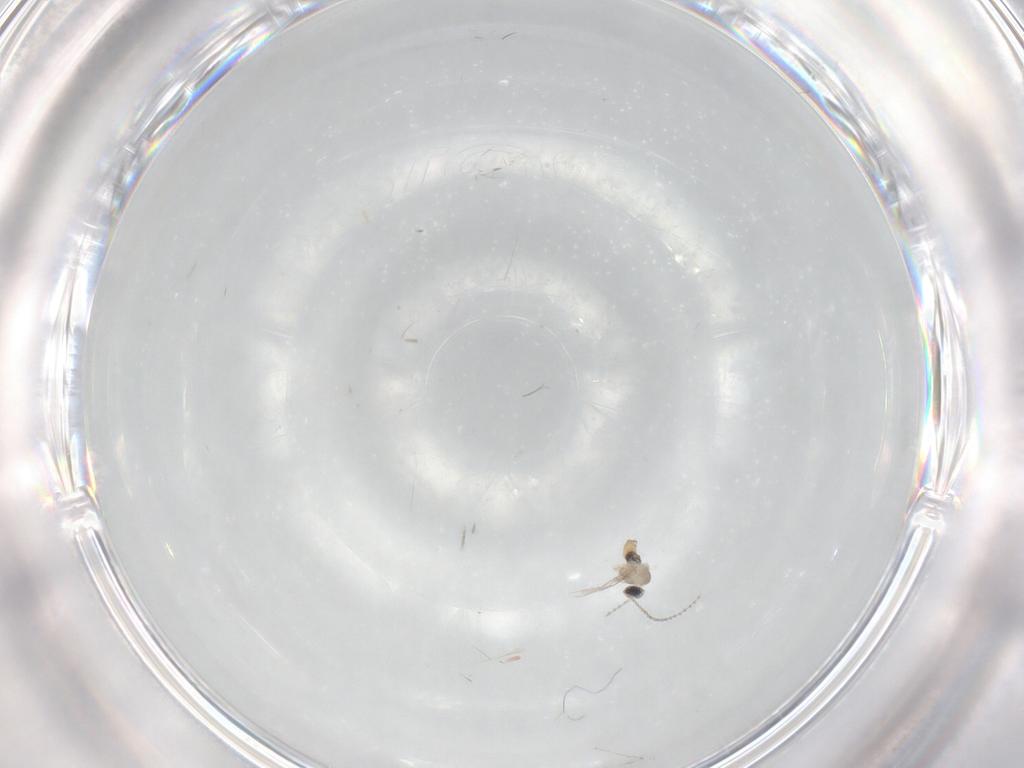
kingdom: Animalia
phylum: Arthropoda
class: Insecta
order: Diptera
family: Cecidomyiidae
